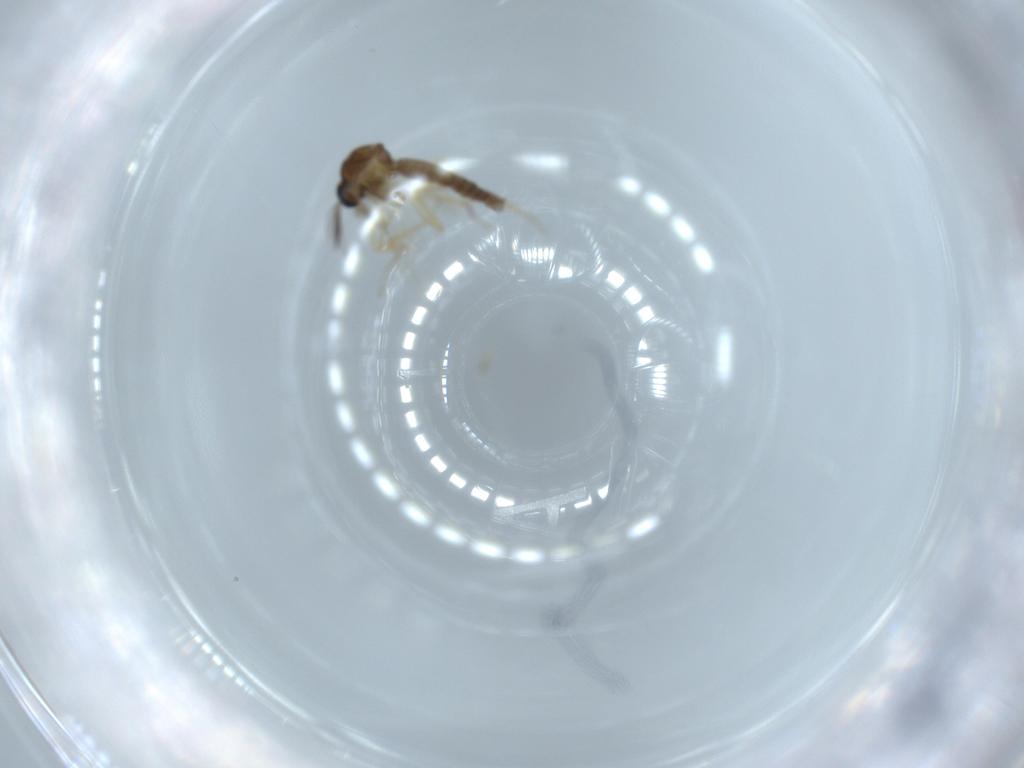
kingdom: Animalia
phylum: Arthropoda
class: Insecta
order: Diptera
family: Ceratopogonidae
